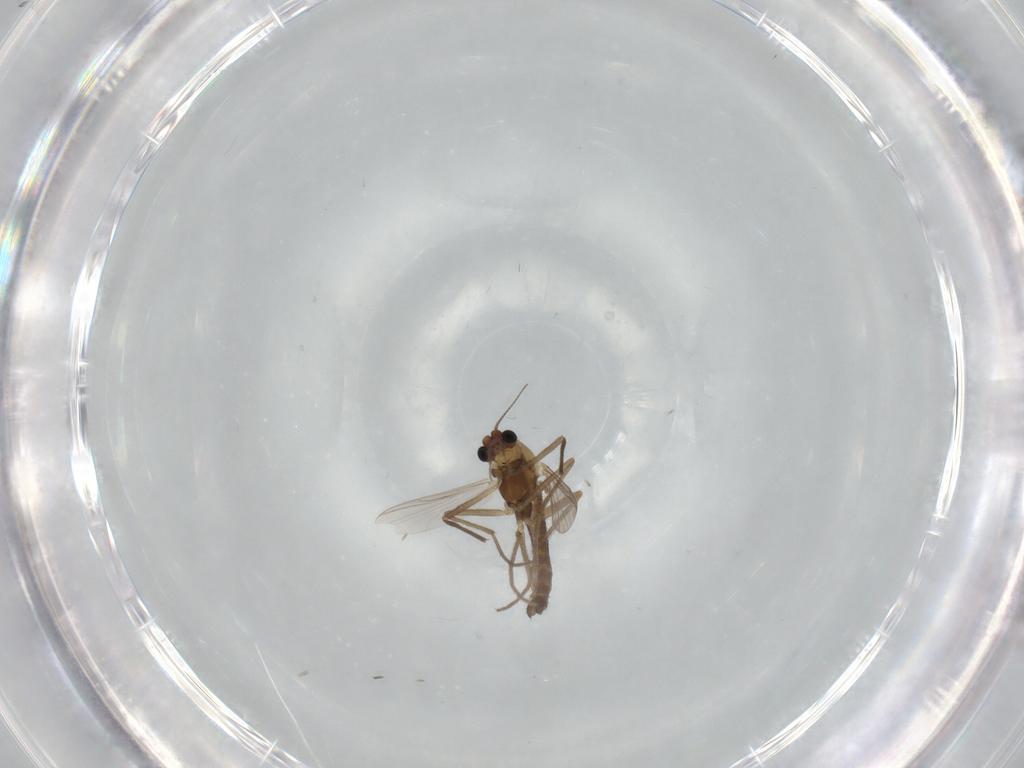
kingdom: Animalia
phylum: Arthropoda
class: Insecta
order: Diptera
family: Chironomidae
